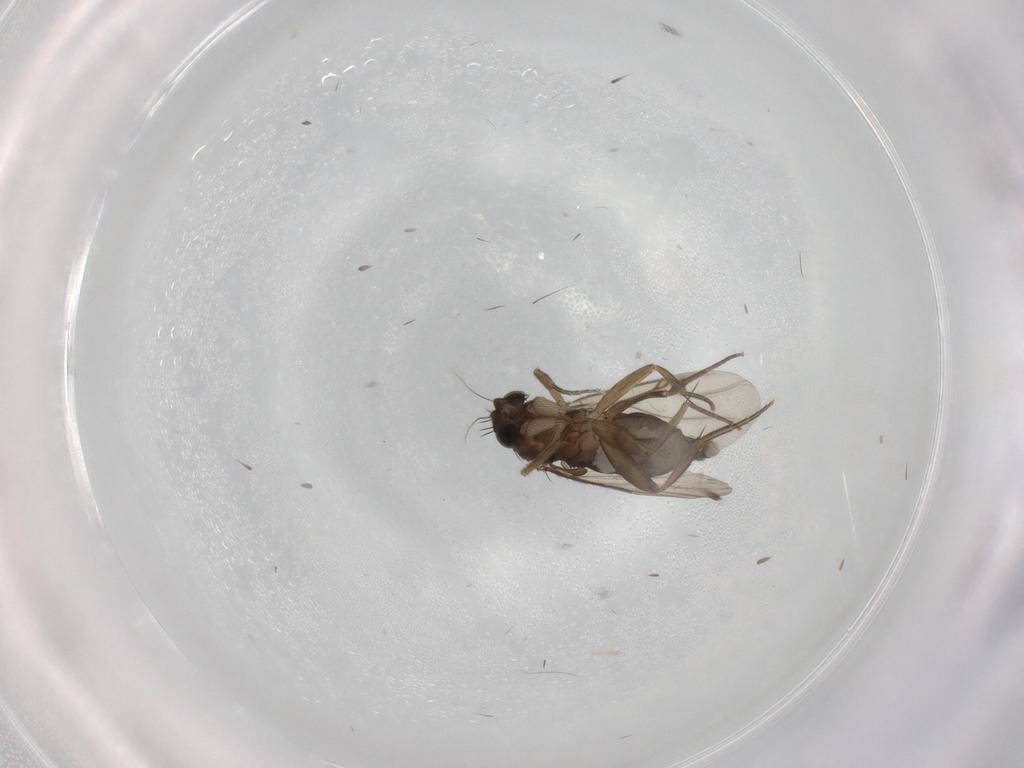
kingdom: Animalia
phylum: Arthropoda
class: Insecta
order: Diptera
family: Phoridae
